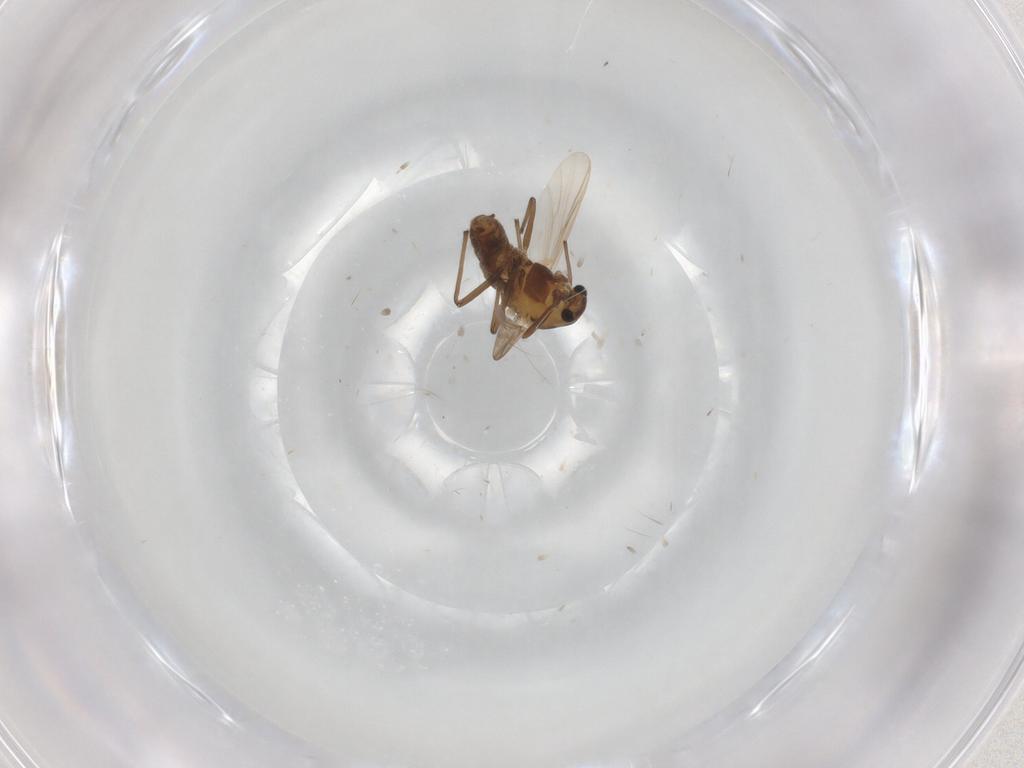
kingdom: Animalia
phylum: Arthropoda
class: Insecta
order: Diptera
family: Chironomidae
